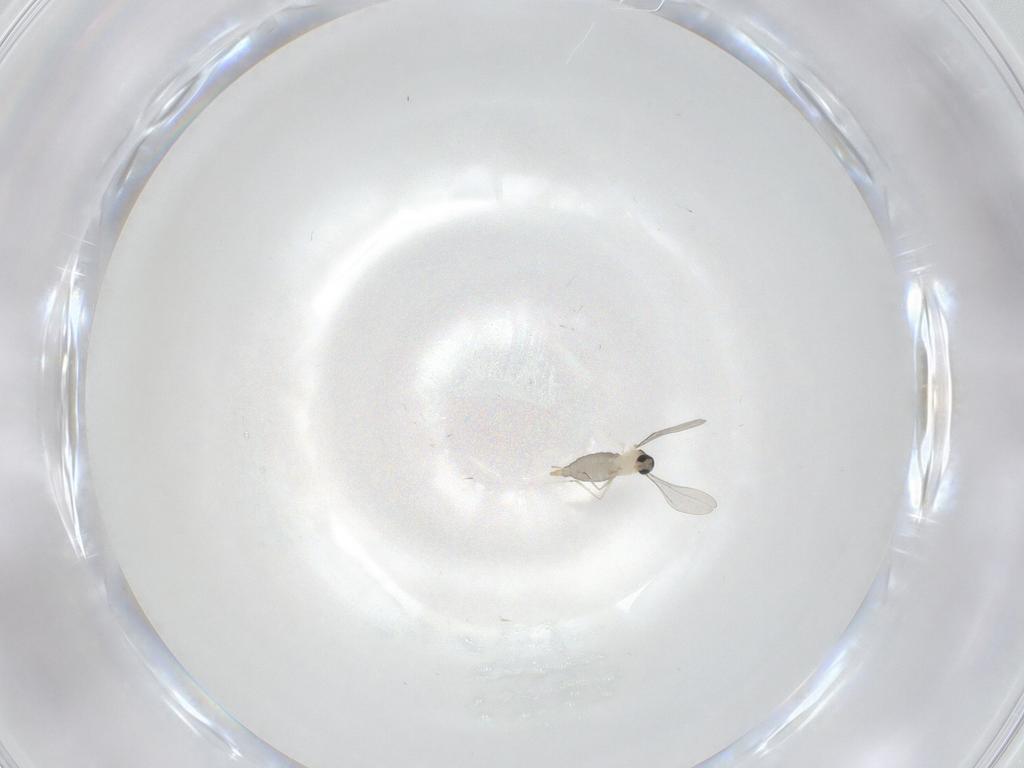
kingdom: Animalia
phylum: Arthropoda
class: Insecta
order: Diptera
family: Cecidomyiidae
